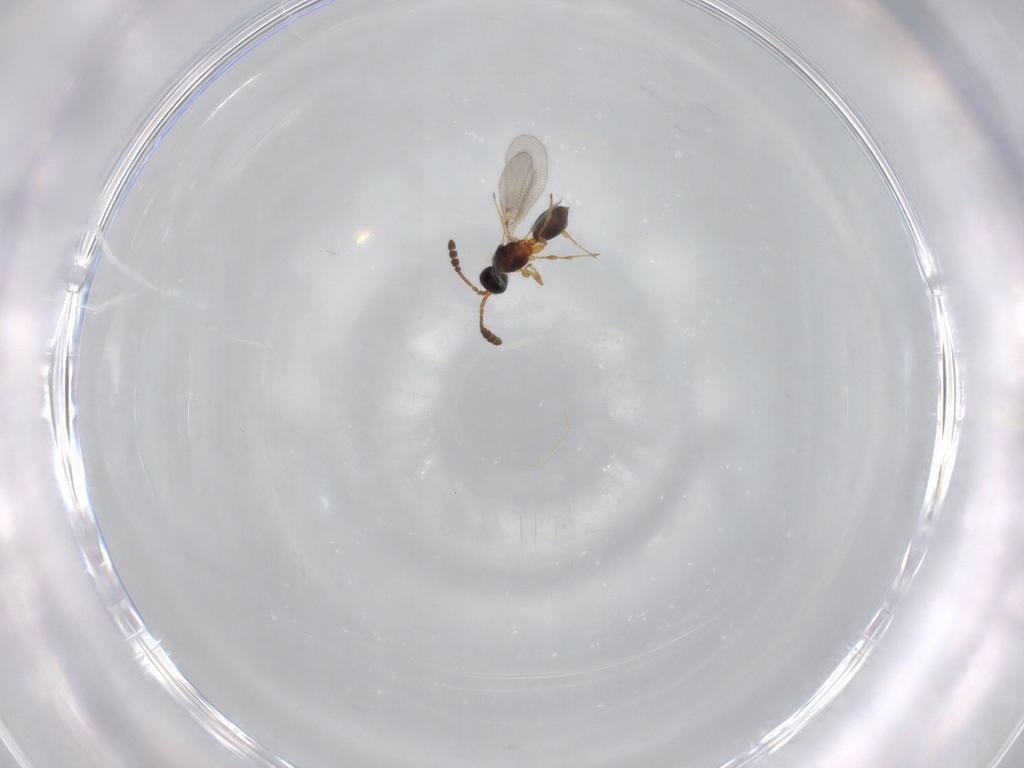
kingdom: Animalia
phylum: Arthropoda
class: Insecta
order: Hymenoptera
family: Diapriidae
